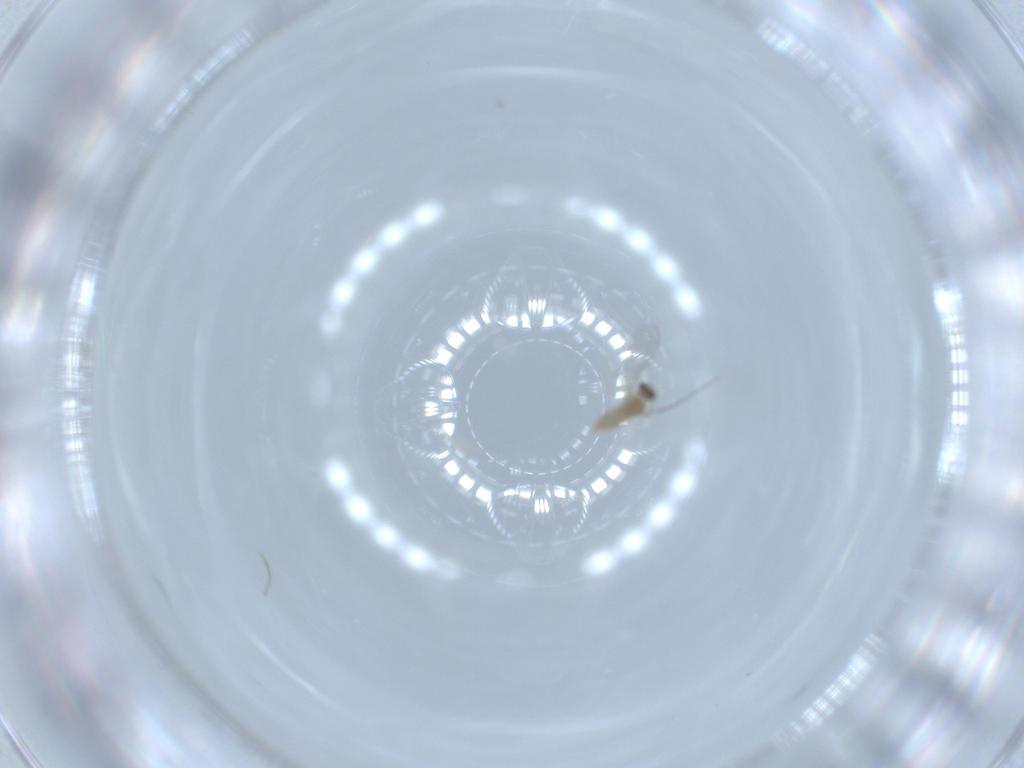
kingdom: Animalia
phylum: Arthropoda
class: Insecta
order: Diptera
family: Cecidomyiidae
